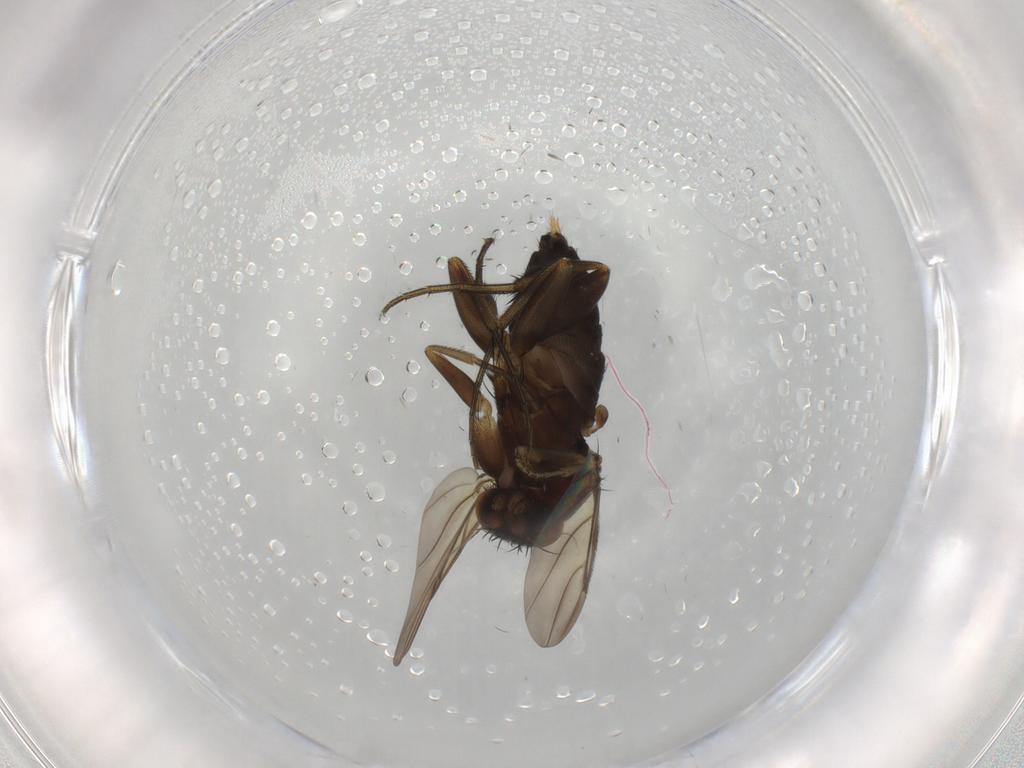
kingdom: Animalia
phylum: Arthropoda
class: Insecta
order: Diptera
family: Phoridae
